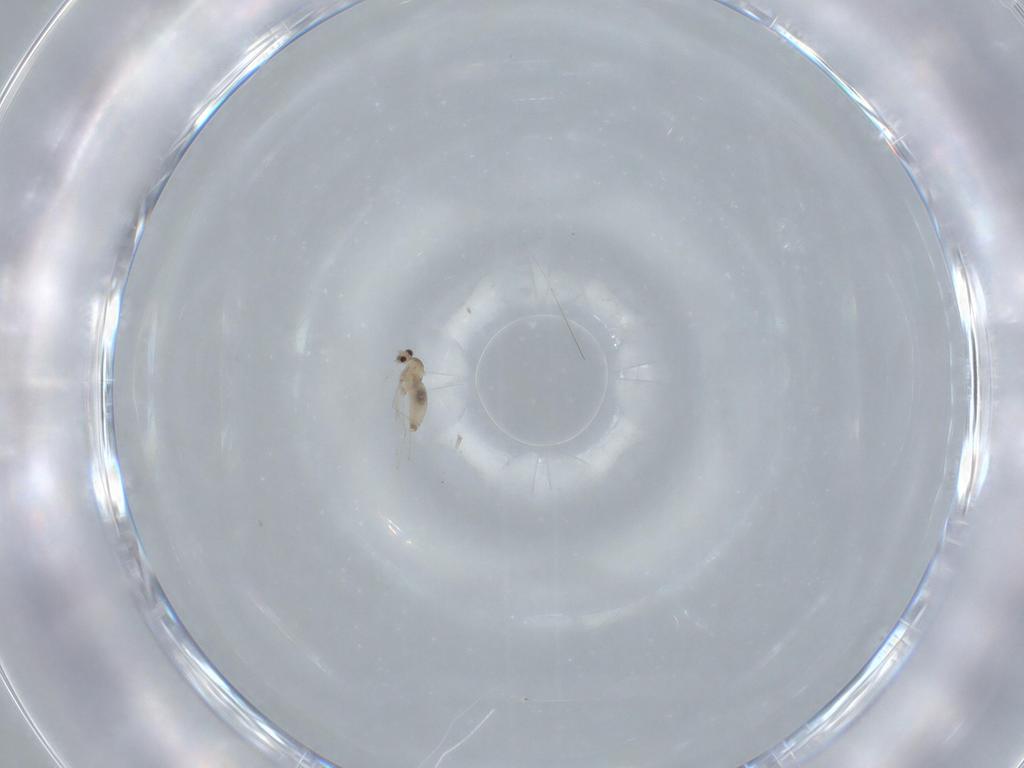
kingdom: Animalia
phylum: Arthropoda
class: Insecta
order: Diptera
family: Cecidomyiidae
